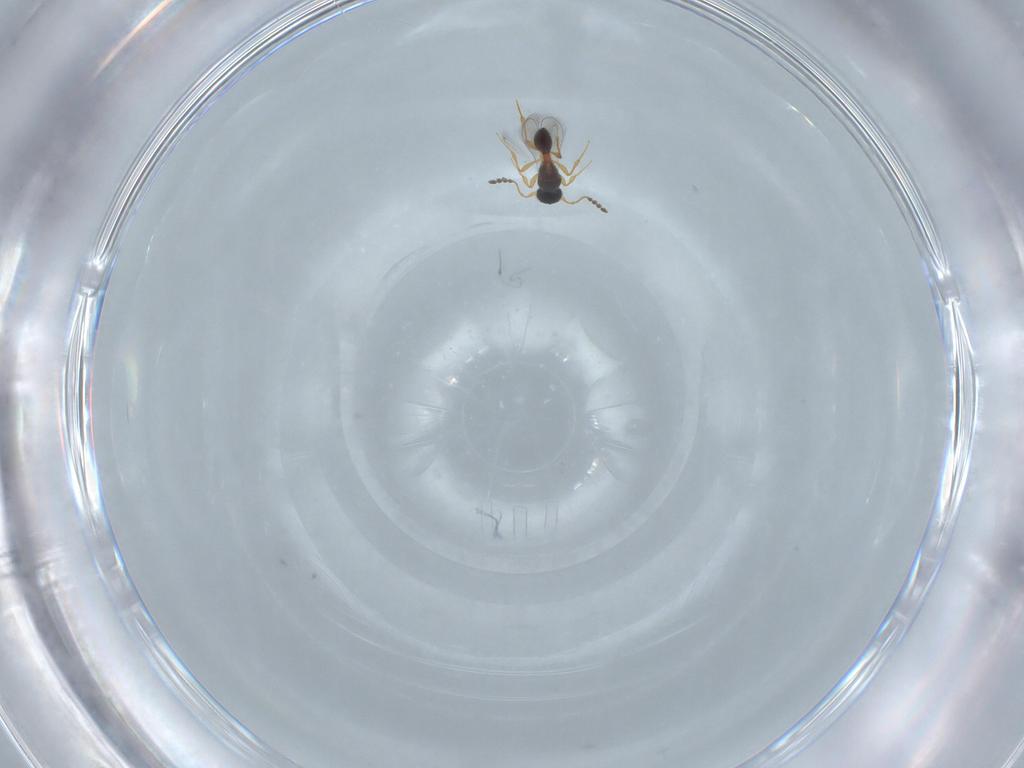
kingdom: Animalia
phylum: Arthropoda
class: Insecta
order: Hymenoptera
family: Platygastridae
